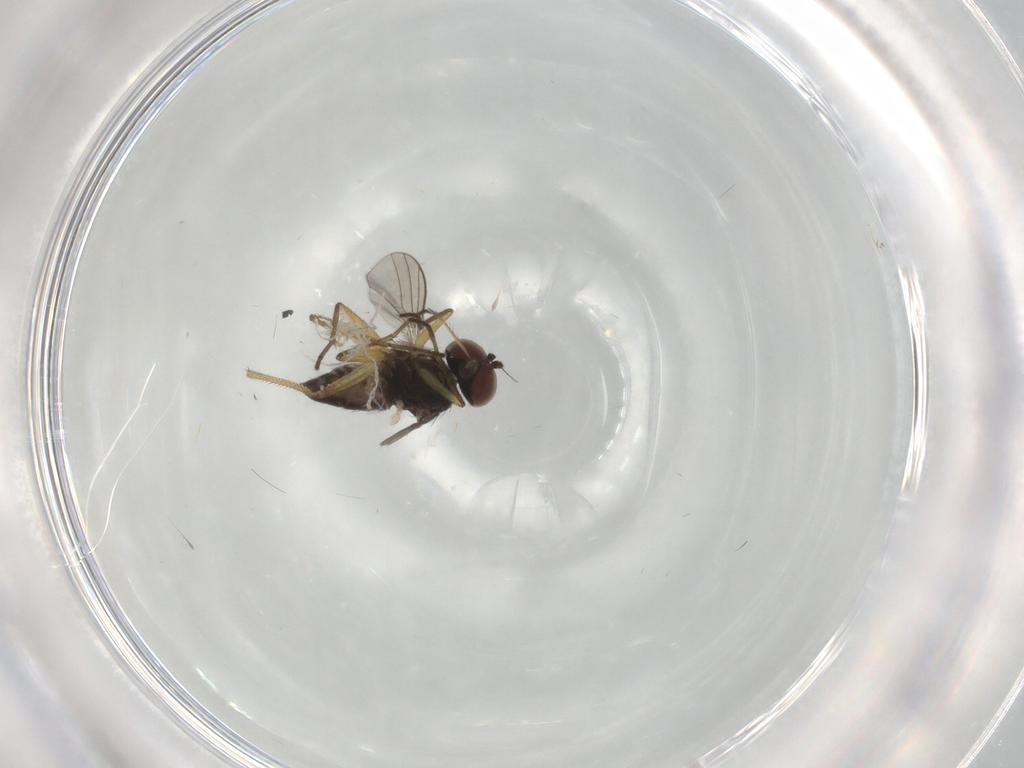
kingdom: Animalia
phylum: Arthropoda
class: Insecta
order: Diptera
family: Dolichopodidae
